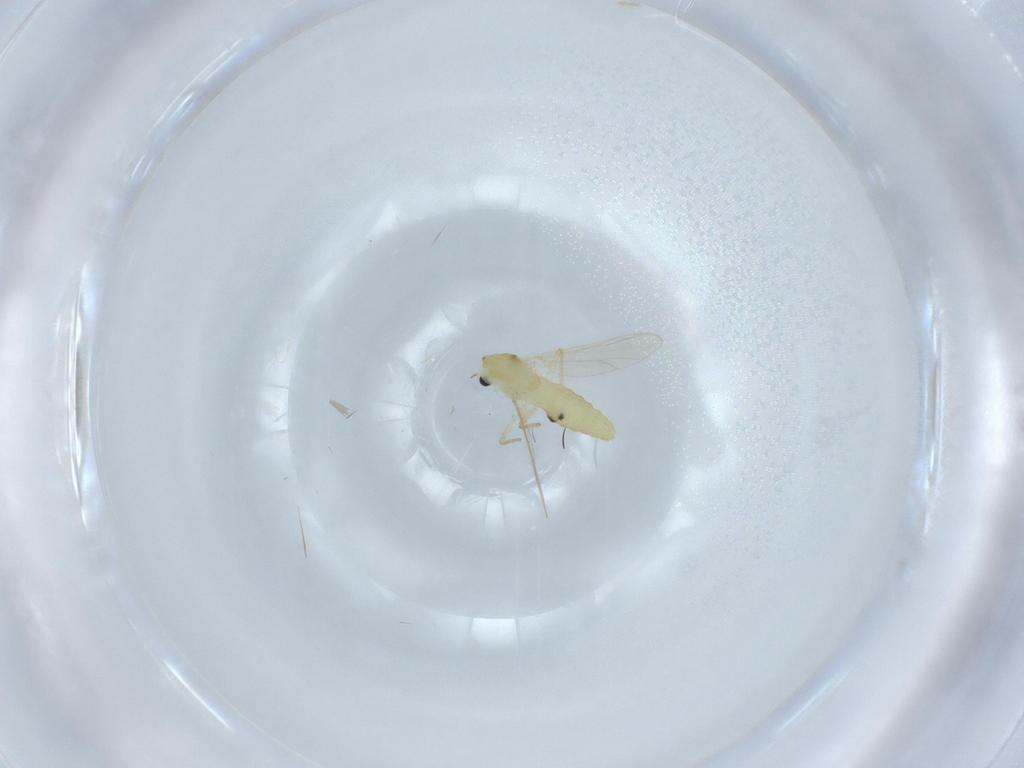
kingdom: Animalia
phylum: Arthropoda
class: Insecta
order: Diptera
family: Chironomidae
